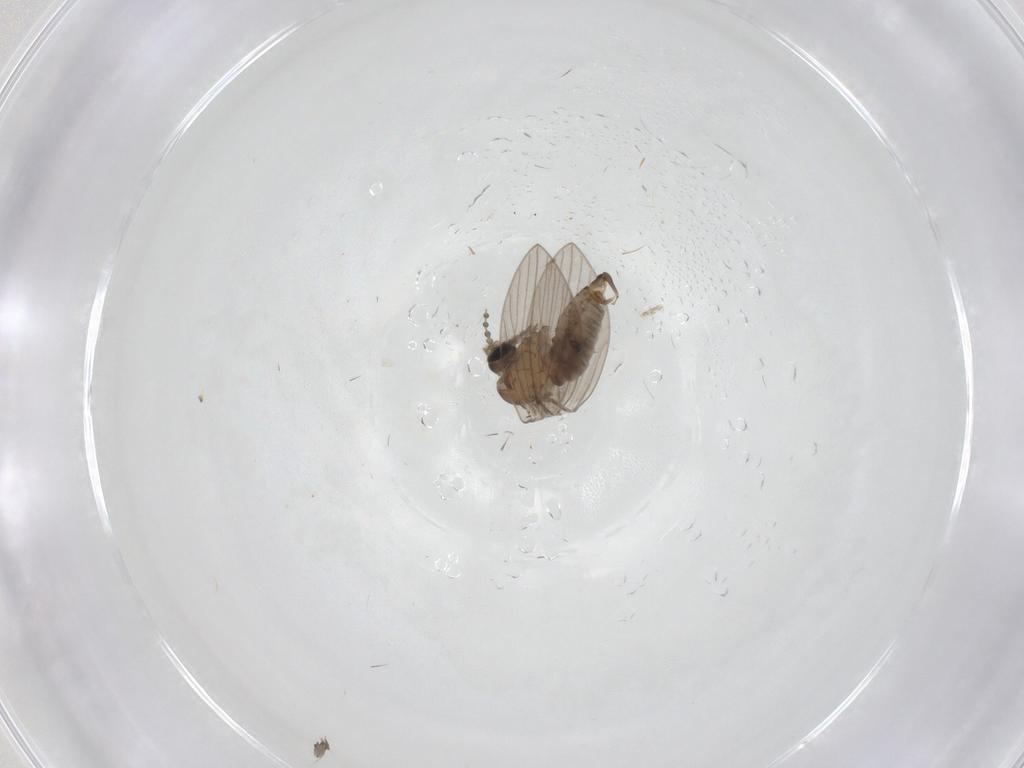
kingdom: Animalia
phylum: Arthropoda
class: Insecta
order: Diptera
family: Psychodidae
